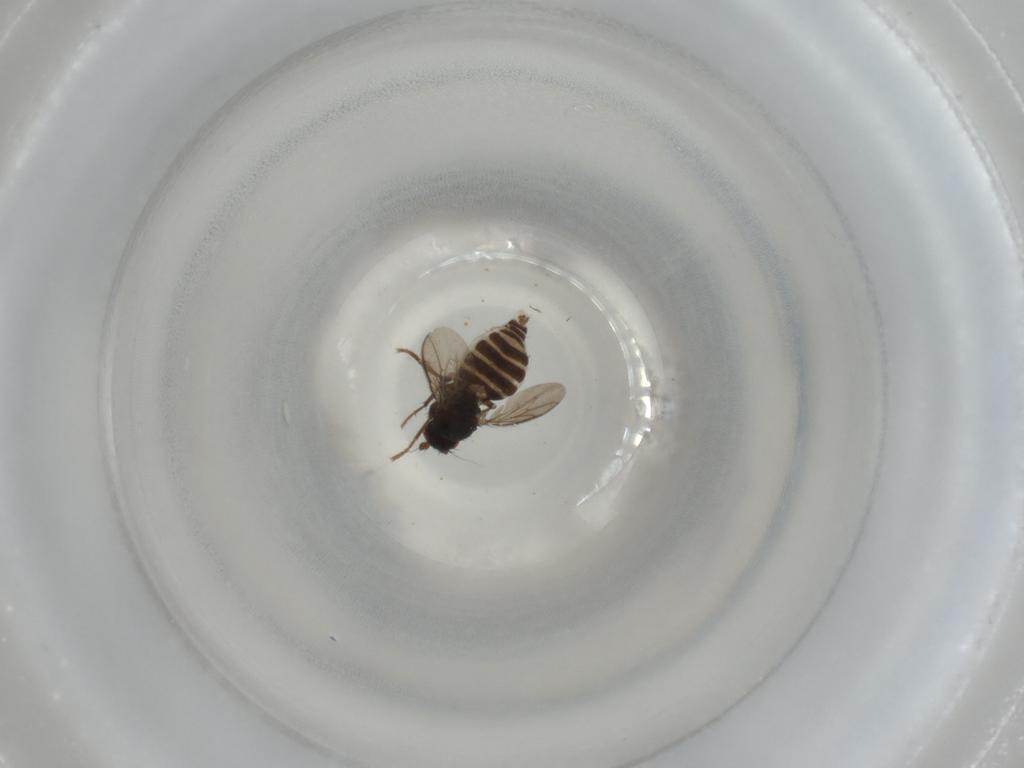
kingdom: Animalia
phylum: Arthropoda
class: Insecta
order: Diptera
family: Sphaeroceridae
